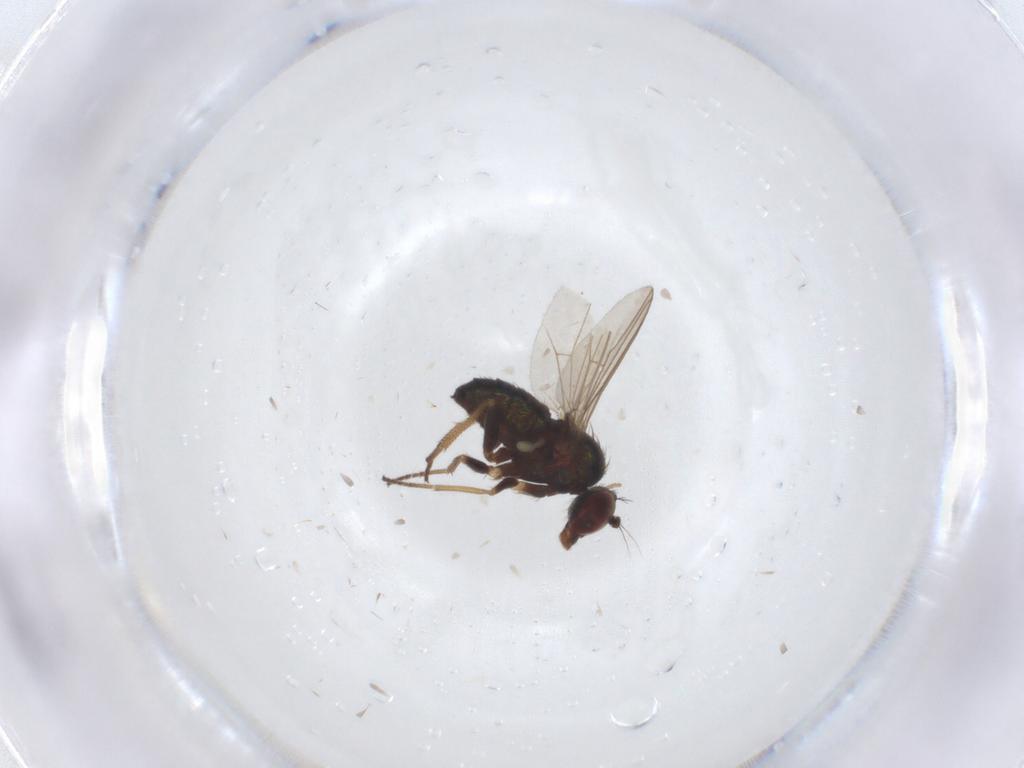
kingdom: Animalia
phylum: Arthropoda
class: Insecta
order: Diptera
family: Dolichopodidae
